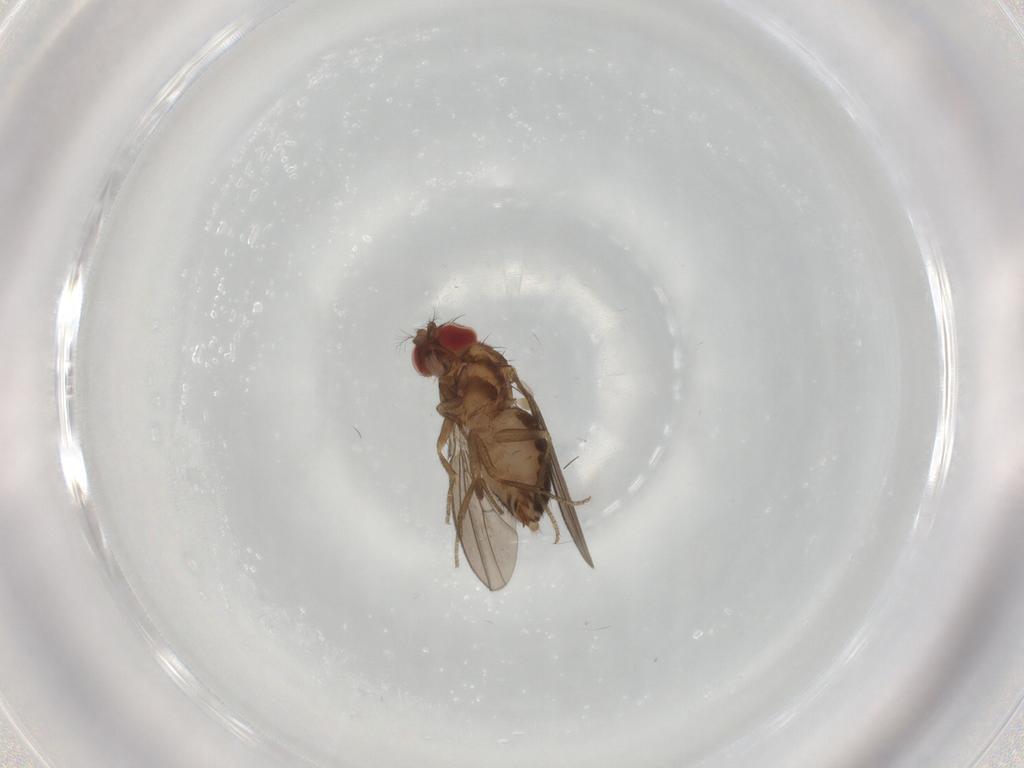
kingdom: Animalia
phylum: Arthropoda
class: Insecta
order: Diptera
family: Drosophilidae
